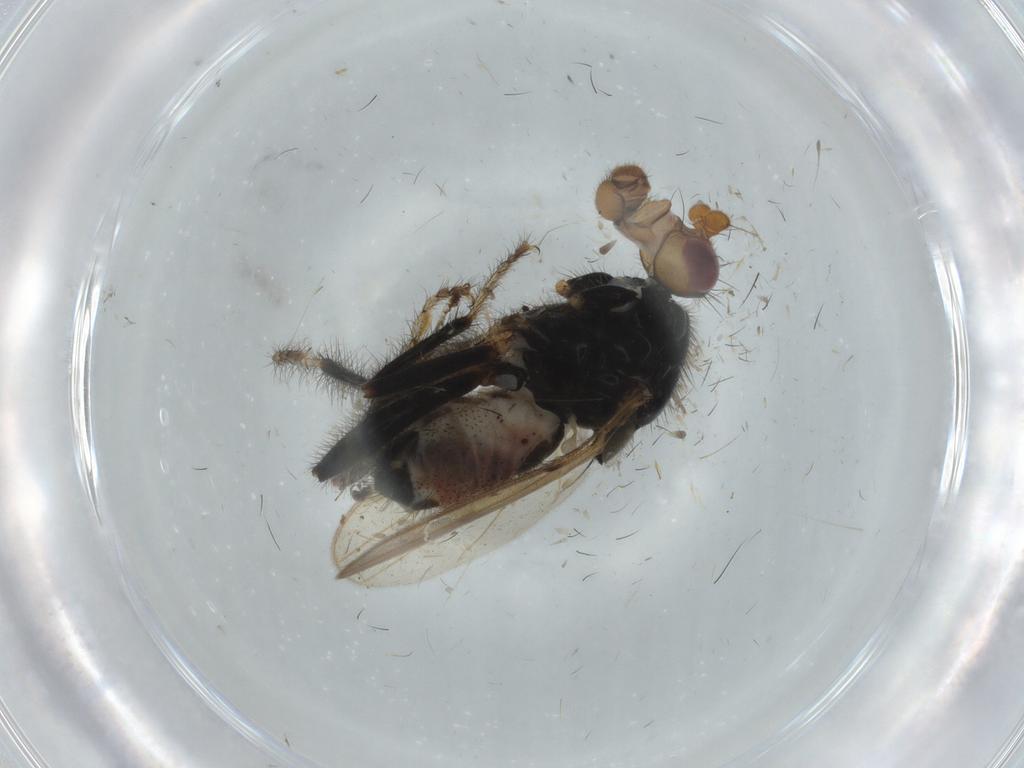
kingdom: Animalia
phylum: Arthropoda
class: Insecta
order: Diptera
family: Sphaeroceridae
